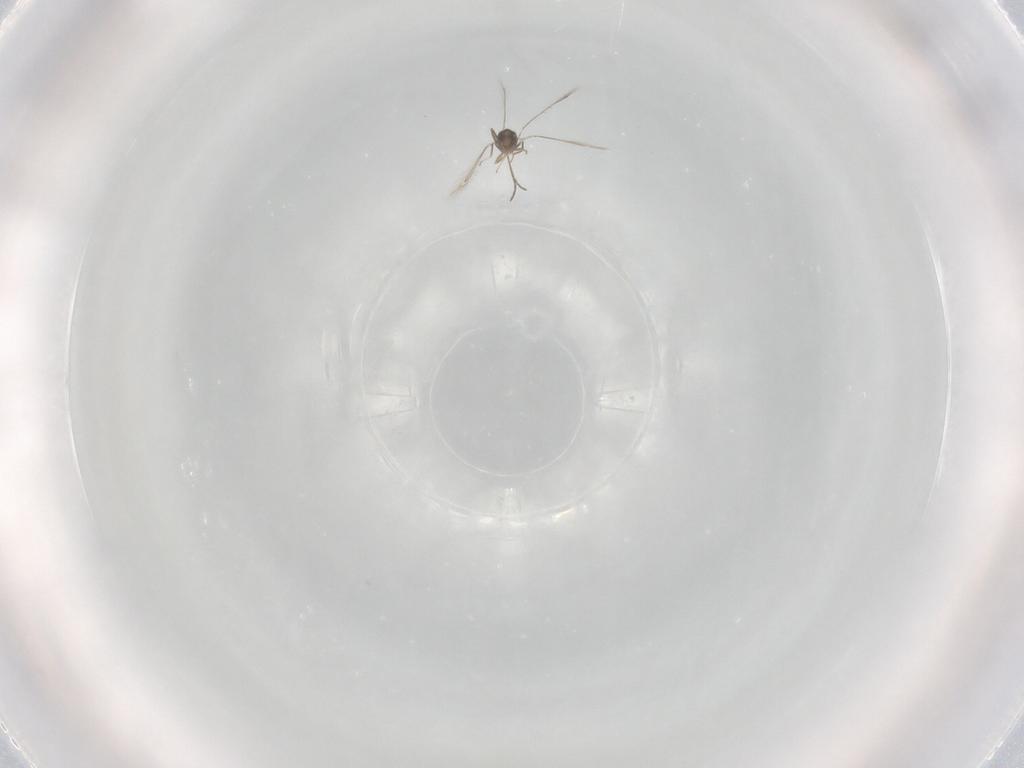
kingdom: Animalia
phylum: Arthropoda
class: Insecta
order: Hymenoptera
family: Mymaridae
